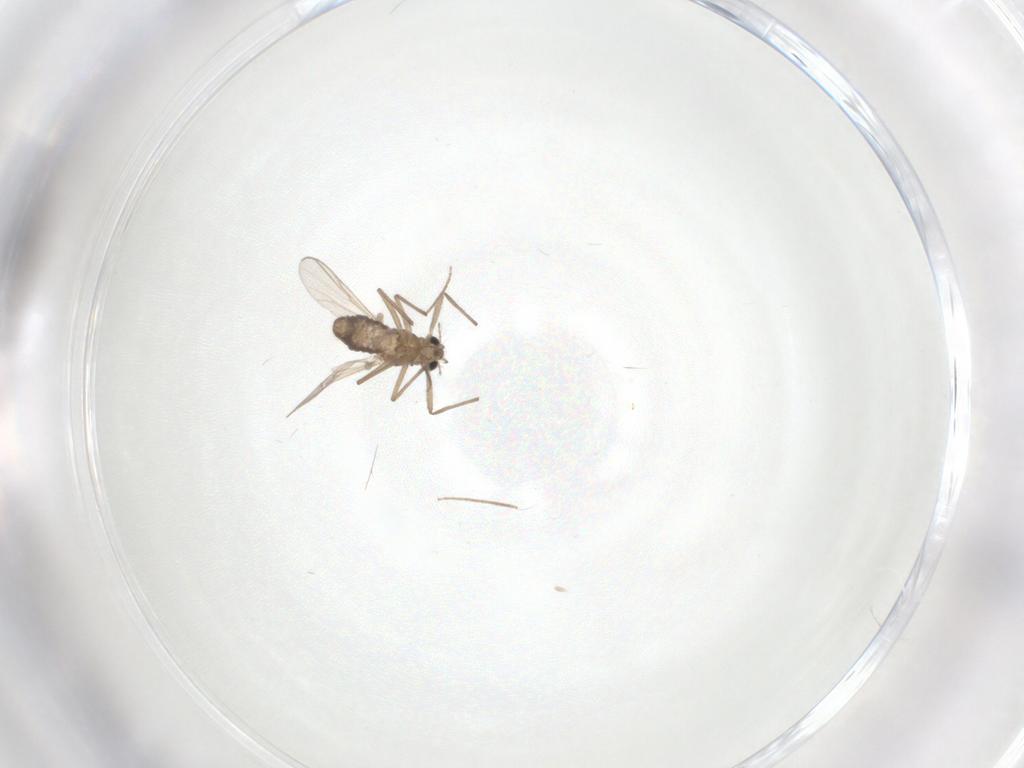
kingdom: Animalia
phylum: Arthropoda
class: Insecta
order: Diptera
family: Chironomidae
